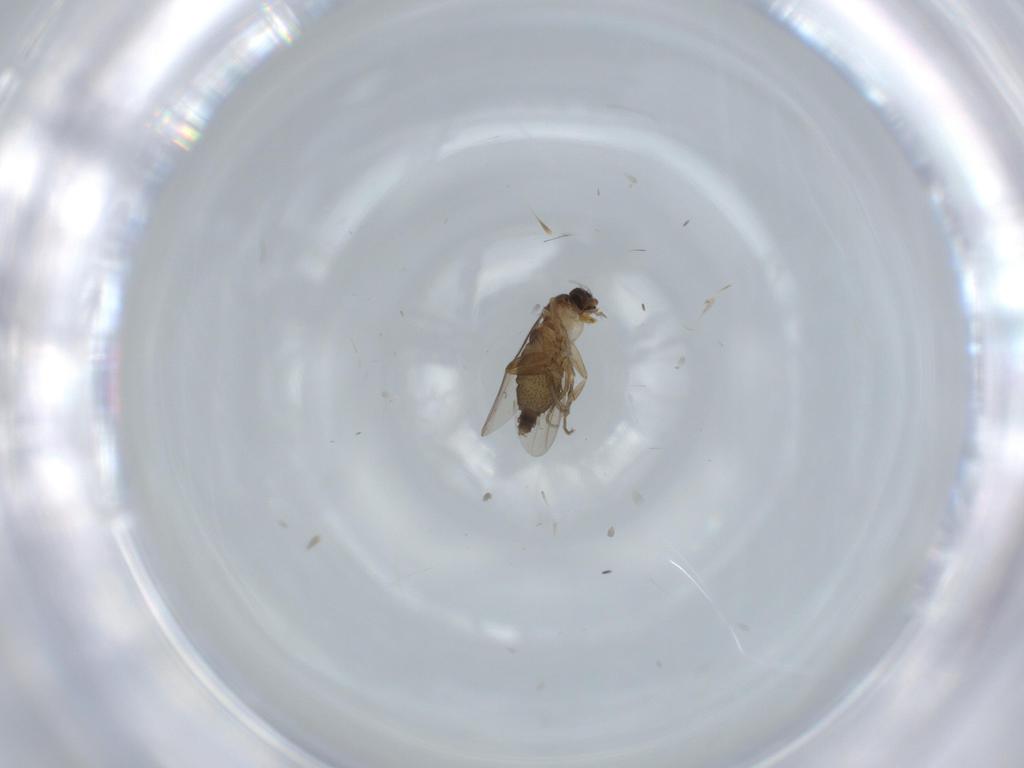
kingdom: Animalia
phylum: Arthropoda
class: Insecta
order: Diptera
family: Phoridae
